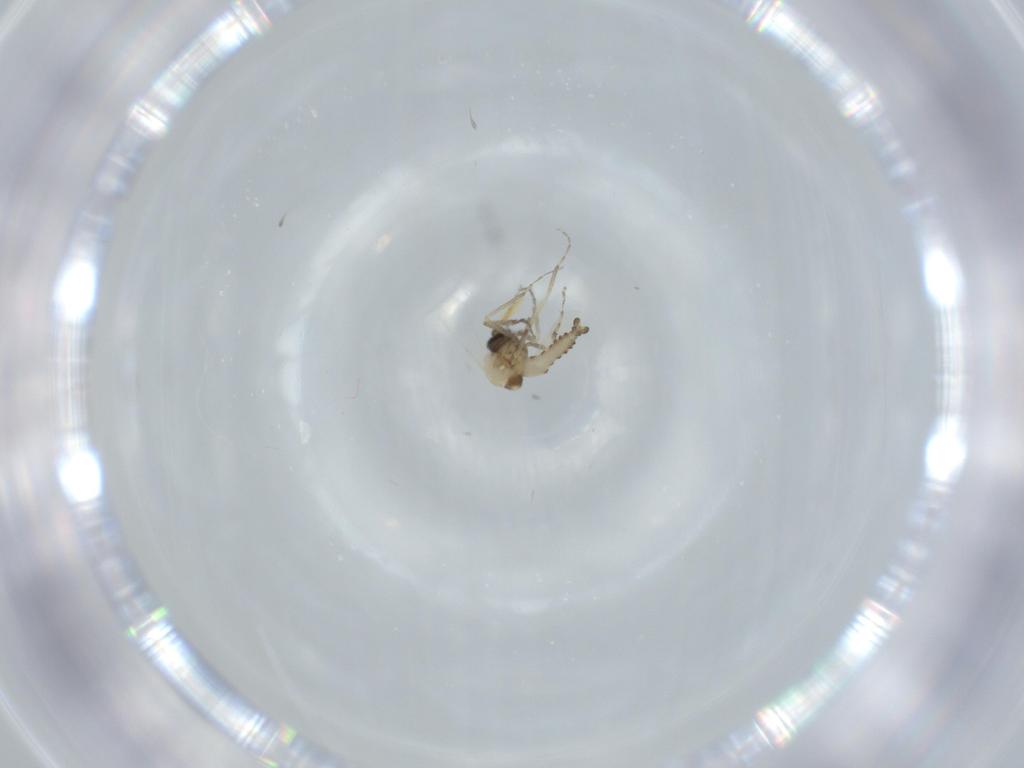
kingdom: Animalia
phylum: Arthropoda
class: Insecta
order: Diptera
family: Ceratopogonidae
